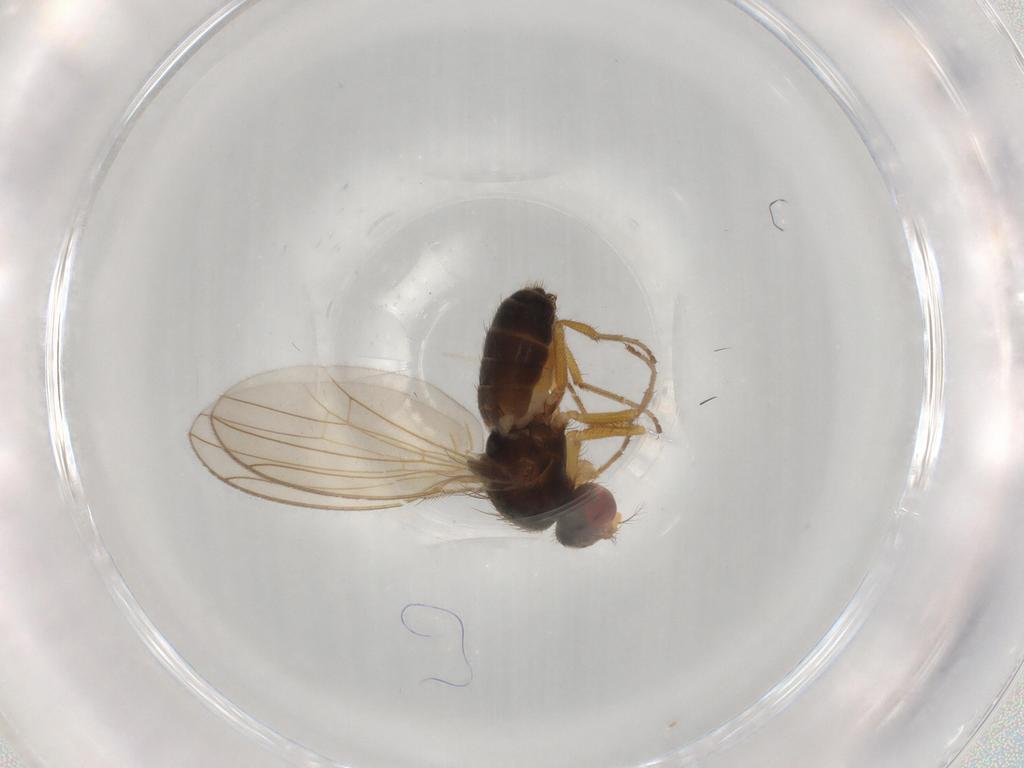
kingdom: Animalia
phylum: Arthropoda
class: Insecta
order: Diptera
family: Drosophilidae
